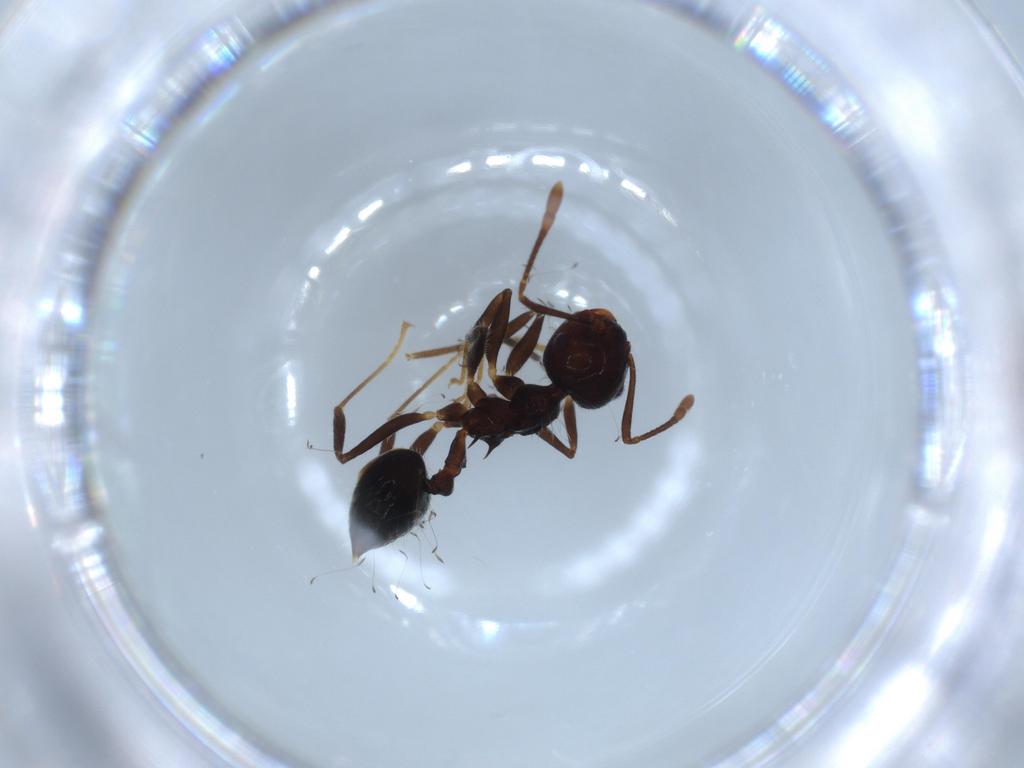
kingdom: Animalia
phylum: Arthropoda
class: Insecta
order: Hymenoptera
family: Formicidae
